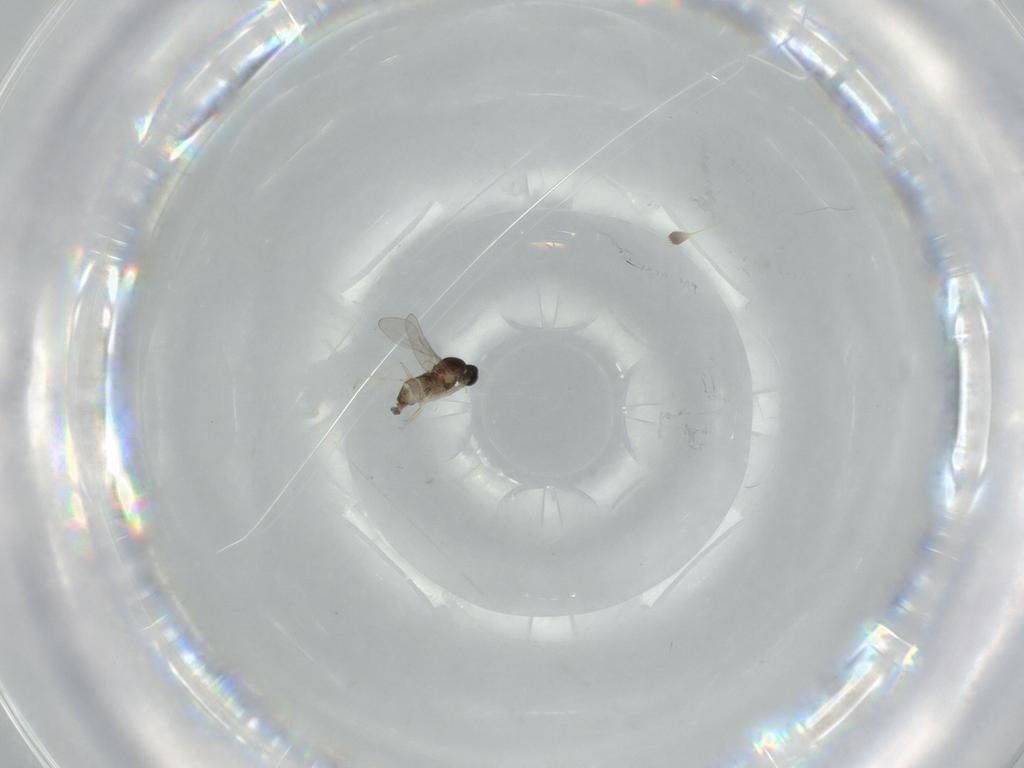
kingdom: Animalia
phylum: Arthropoda
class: Insecta
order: Diptera
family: Cecidomyiidae
